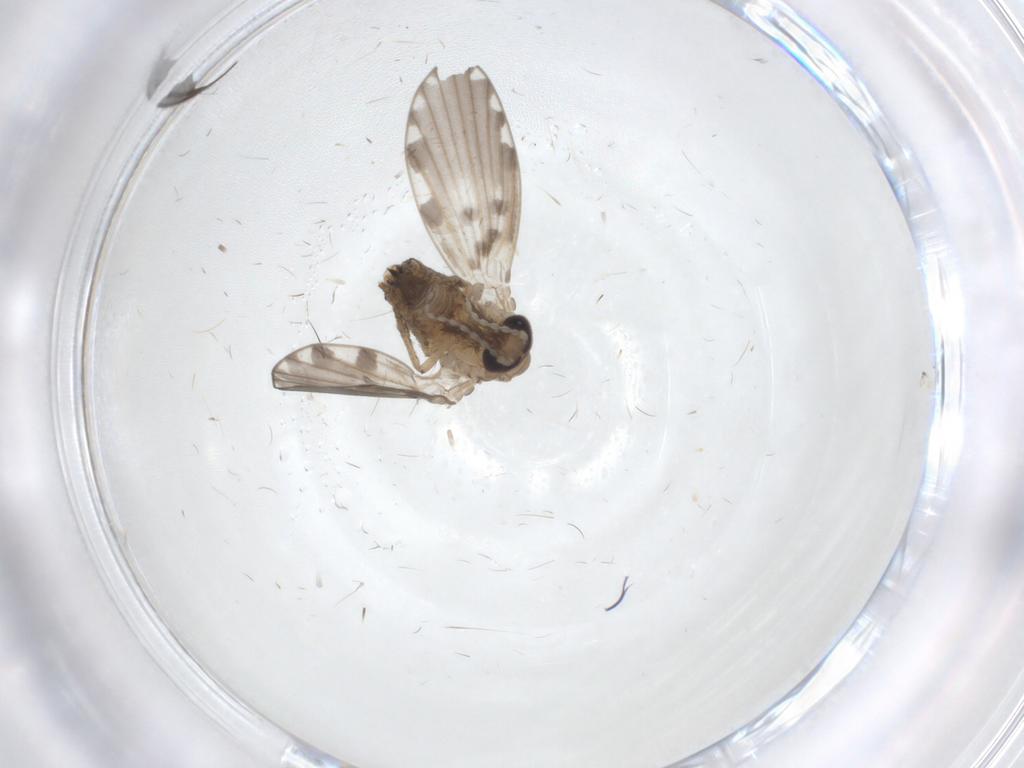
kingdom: Animalia
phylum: Arthropoda
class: Insecta
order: Diptera
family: Psychodidae
